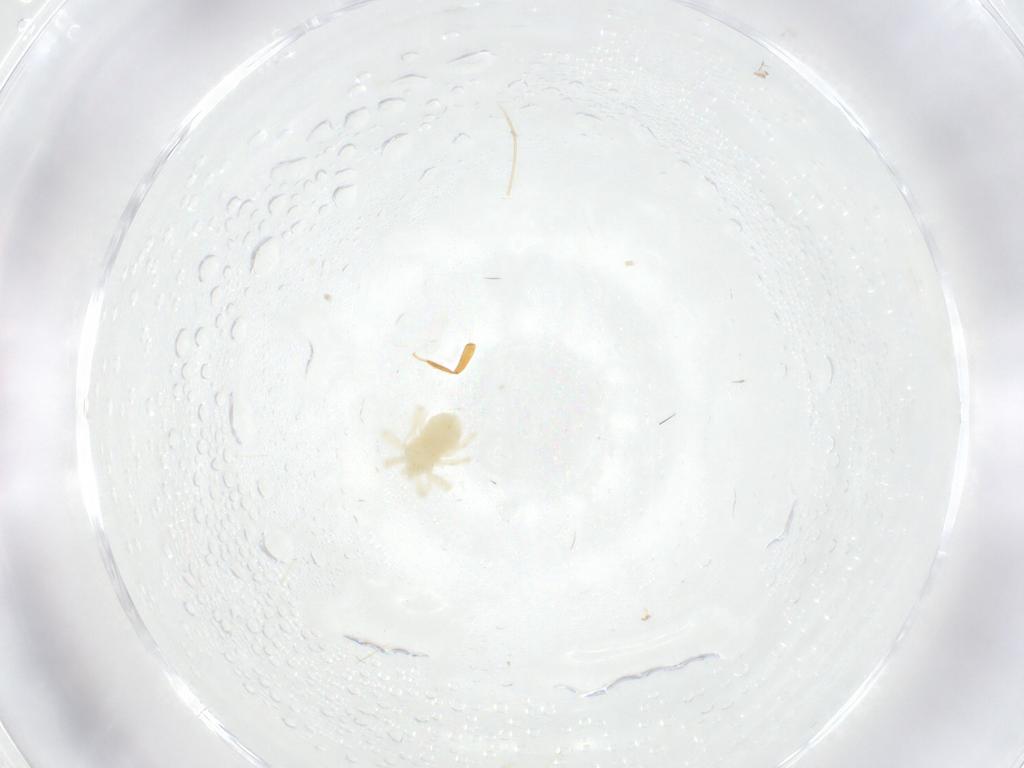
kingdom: Animalia
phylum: Arthropoda
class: Arachnida
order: Trombidiformes
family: Anystidae
